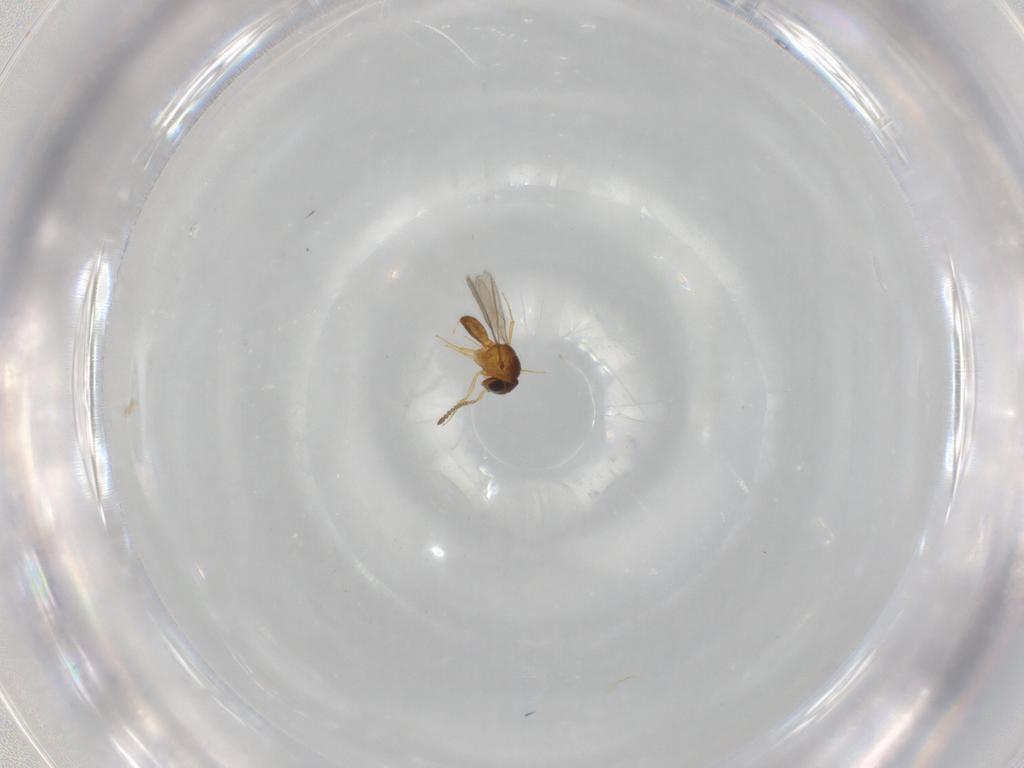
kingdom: Animalia
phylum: Arthropoda
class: Insecta
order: Hymenoptera
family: Scelionidae
